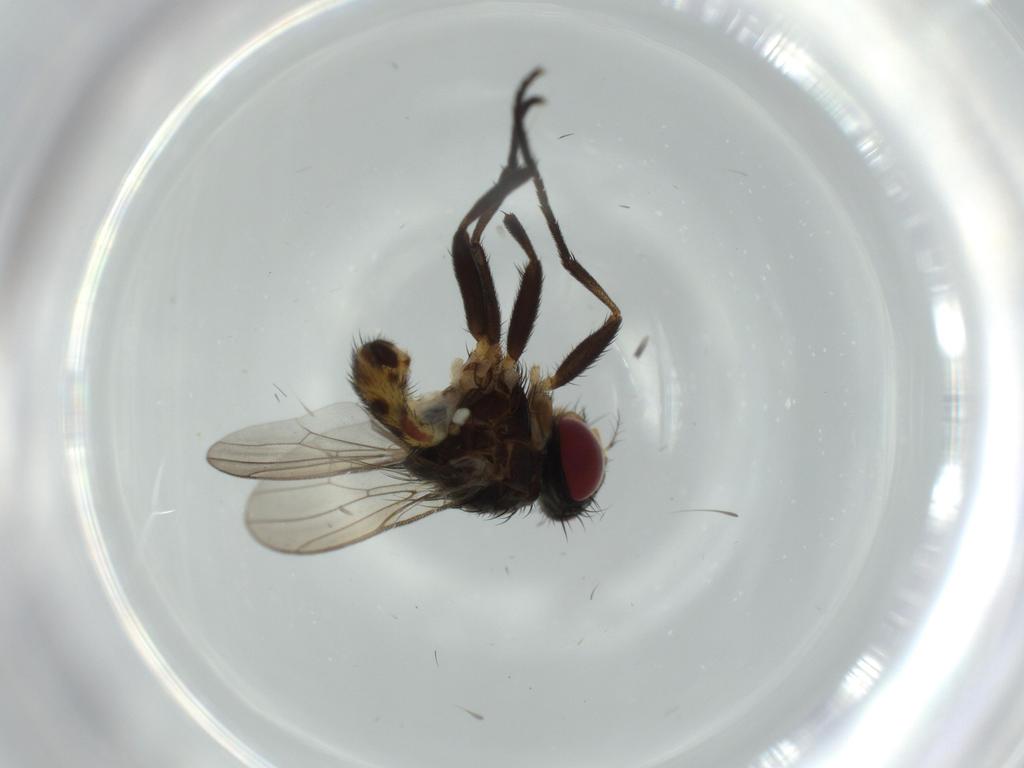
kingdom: Animalia
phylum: Arthropoda
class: Insecta
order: Diptera
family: Anthomyiidae
